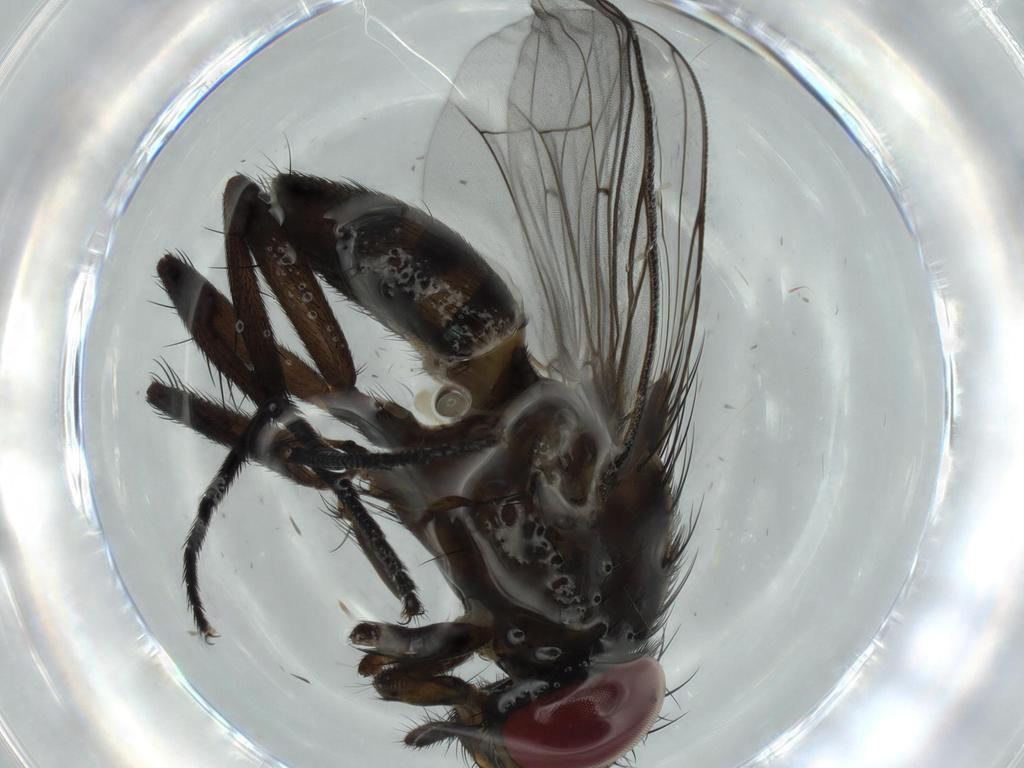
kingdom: Animalia
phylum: Arthropoda
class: Insecta
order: Diptera
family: Fannia
